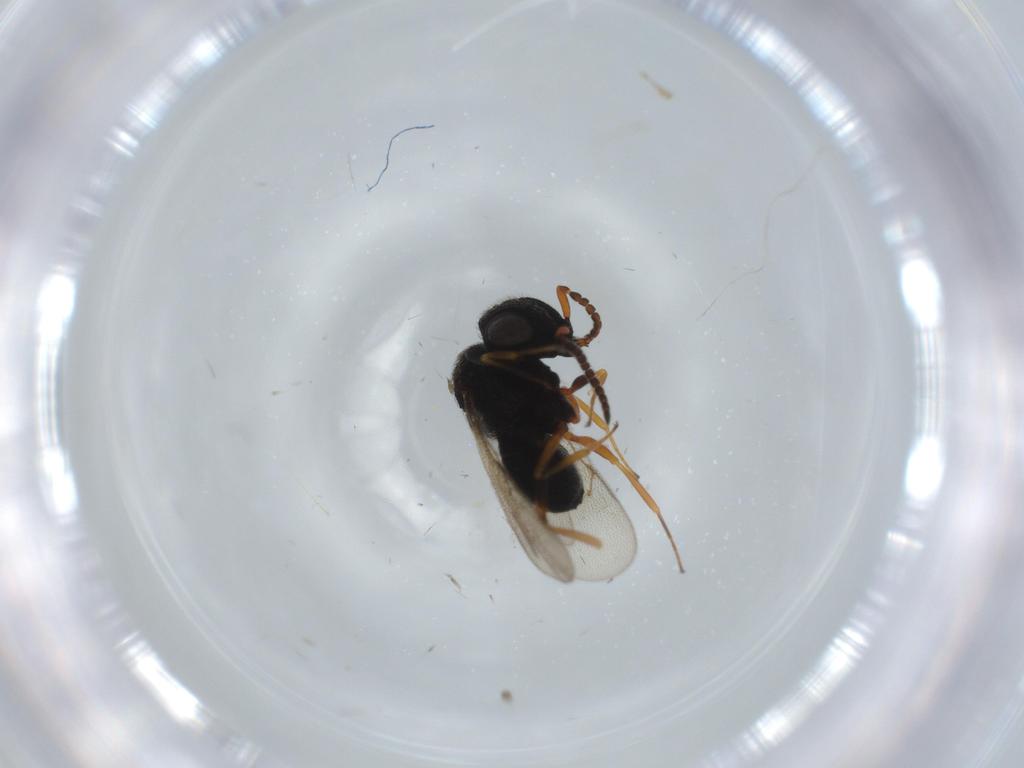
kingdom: Animalia
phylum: Arthropoda
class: Insecta
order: Hymenoptera
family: Scelionidae
